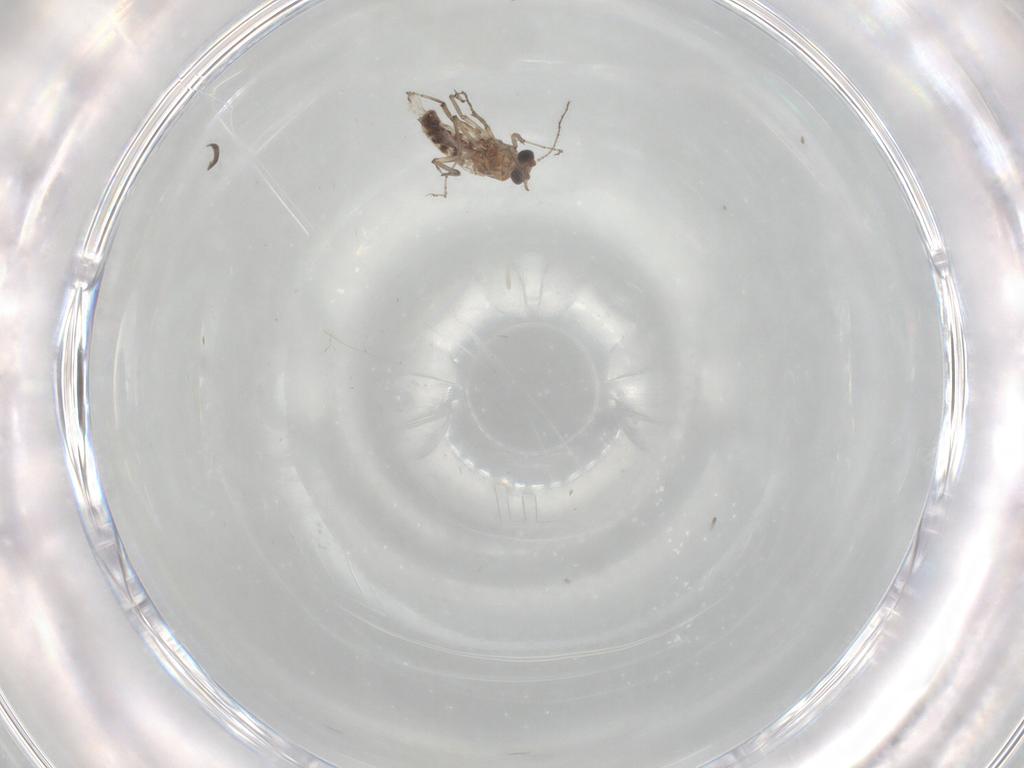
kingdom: Animalia
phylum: Arthropoda
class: Insecta
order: Diptera
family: Ceratopogonidae
